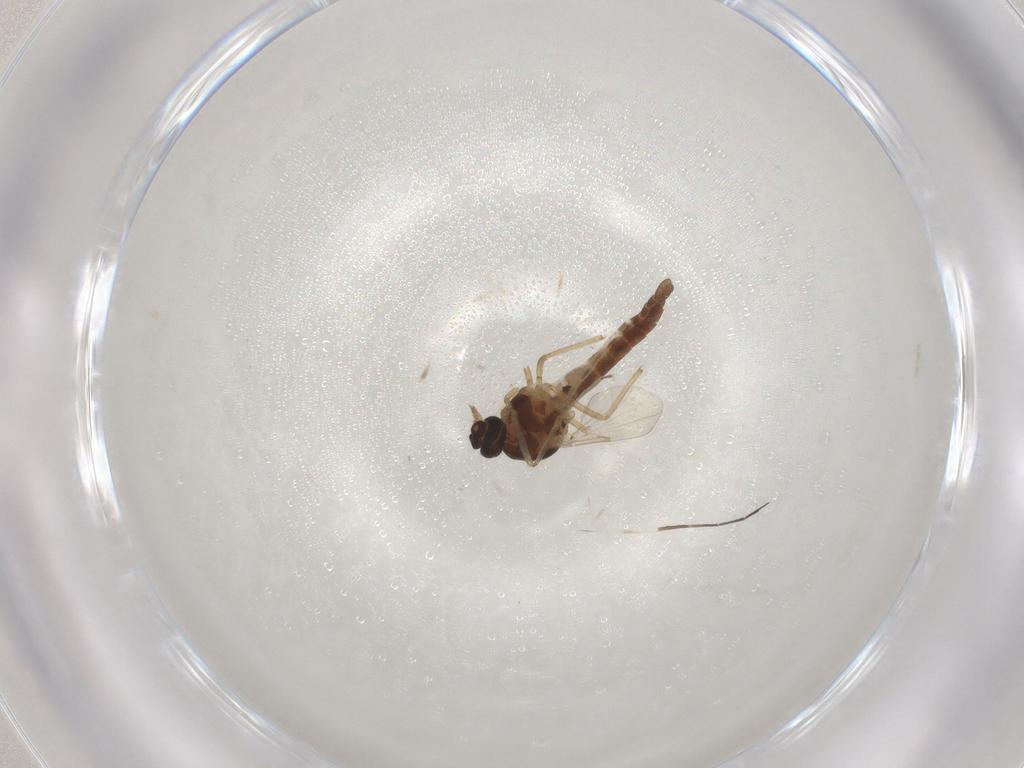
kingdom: Animalia
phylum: Arthropoda
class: Insecta
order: Diptera
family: Ceratopogonidae
